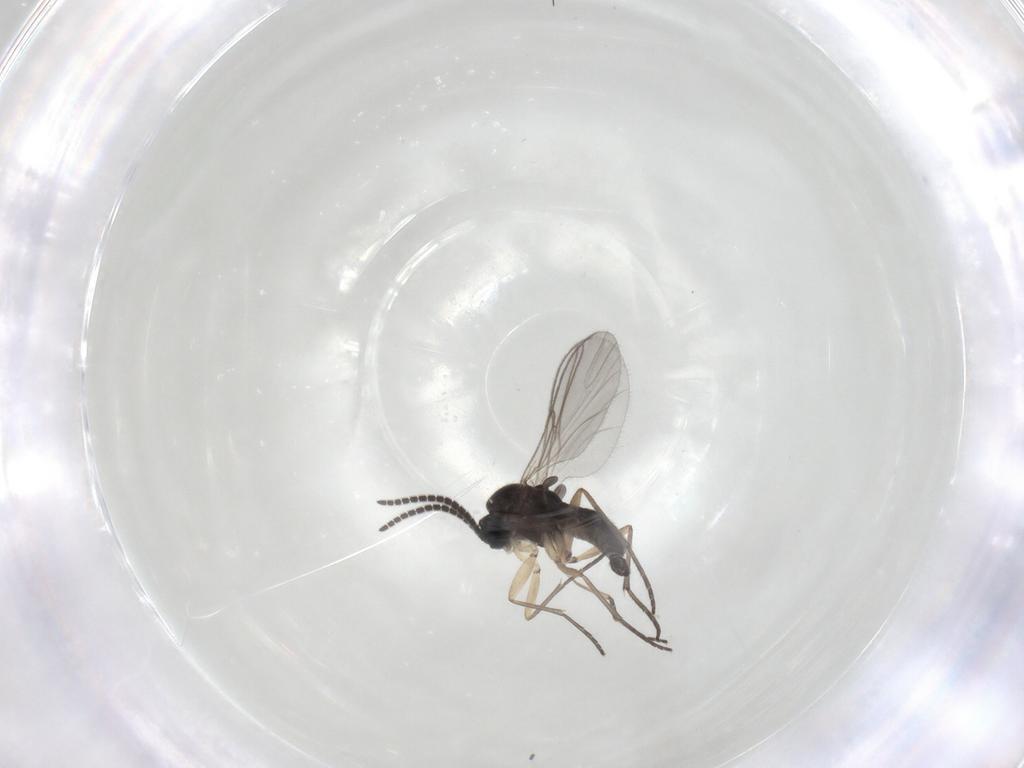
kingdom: Animalia
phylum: Arthropoda
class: Insecta
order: Diptera
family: Sciaridae
